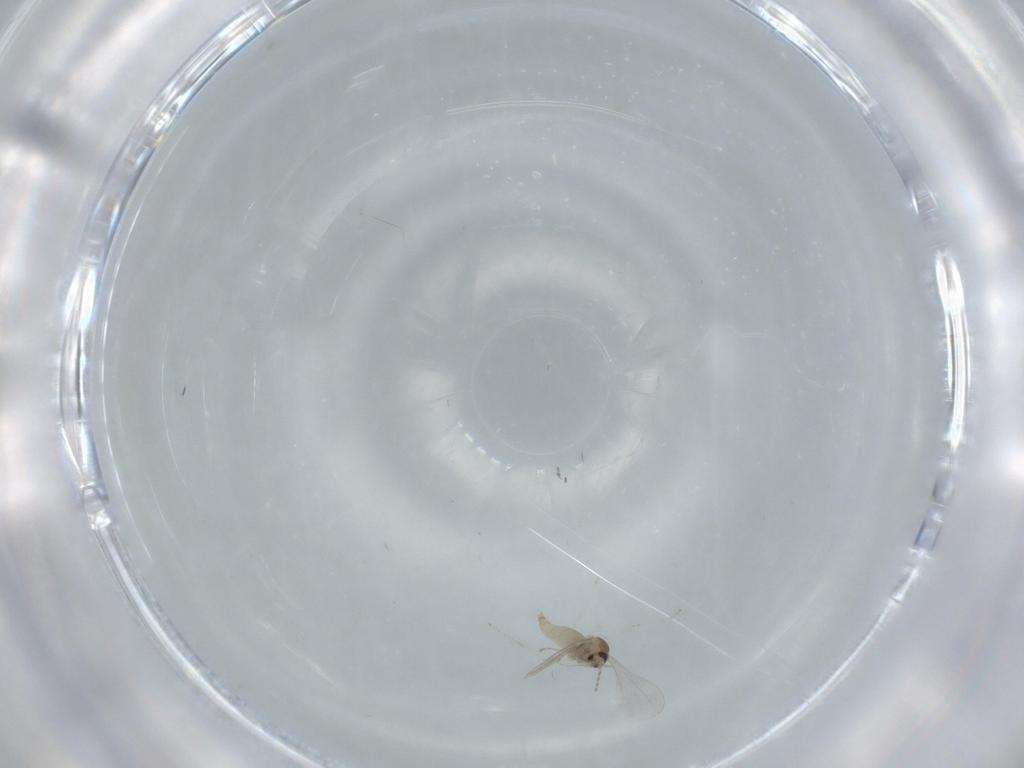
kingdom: Animalia
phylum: Arthropoda
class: Insecta
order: Diptera
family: Cecidomyiidae
